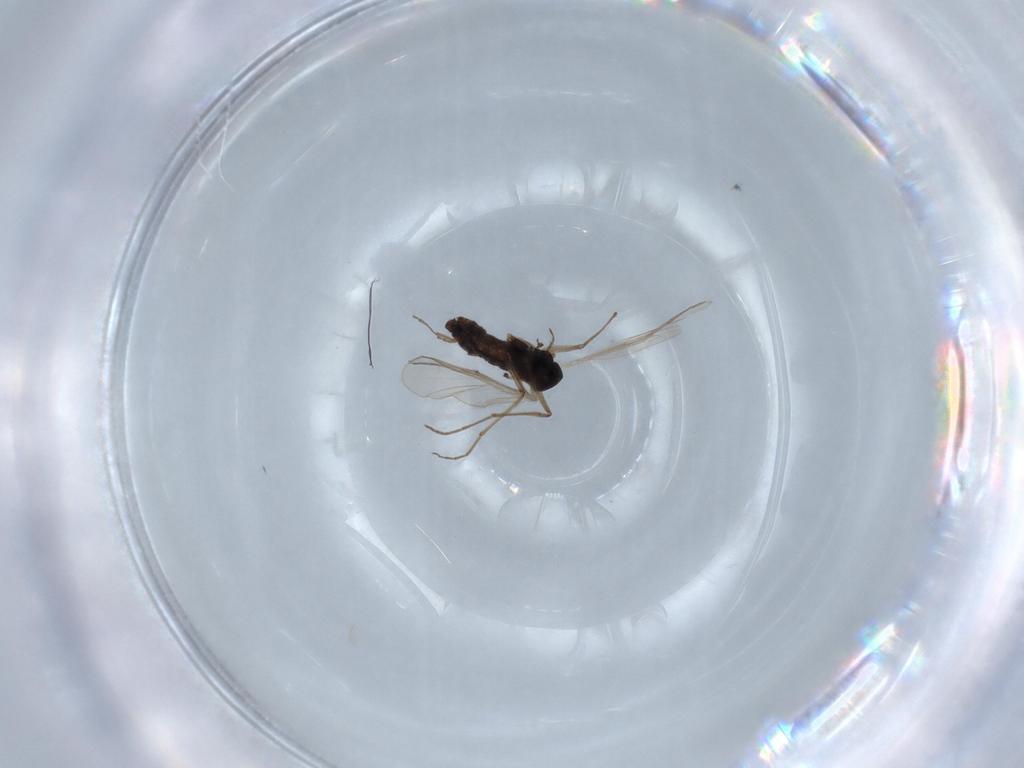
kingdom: Animalia
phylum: Arthropoda
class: Insecta
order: Diptera
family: Chironomidae
